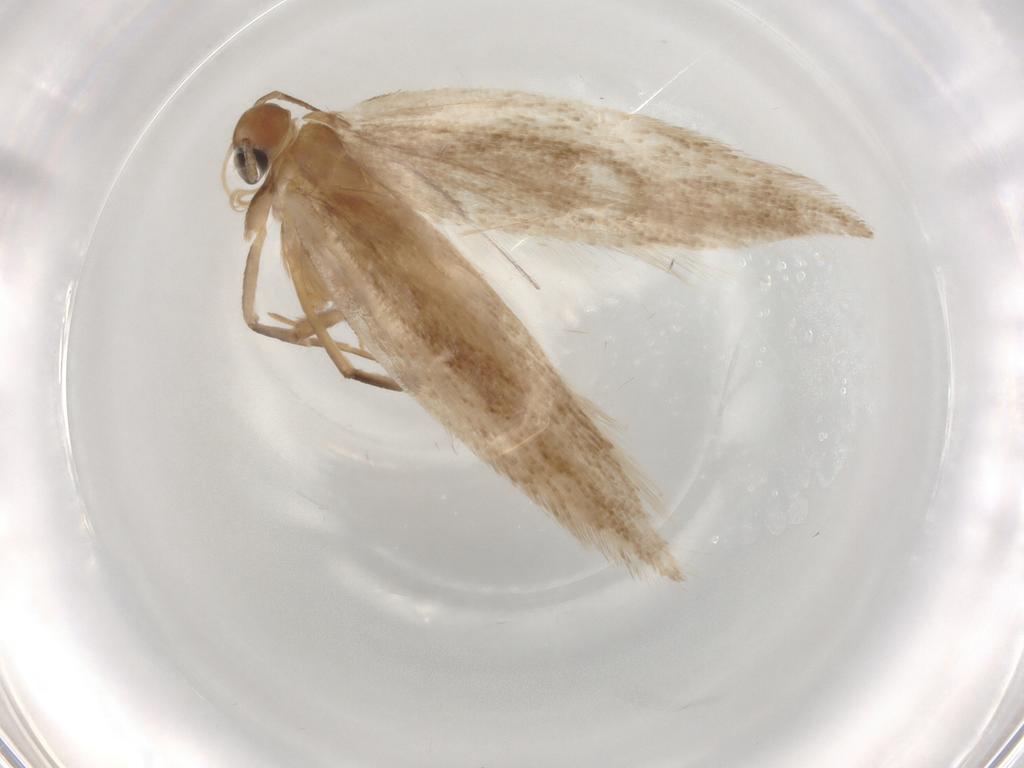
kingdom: Animalia
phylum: Arthropoda
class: Insecta
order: Lepidoptera
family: Gelechiidae
